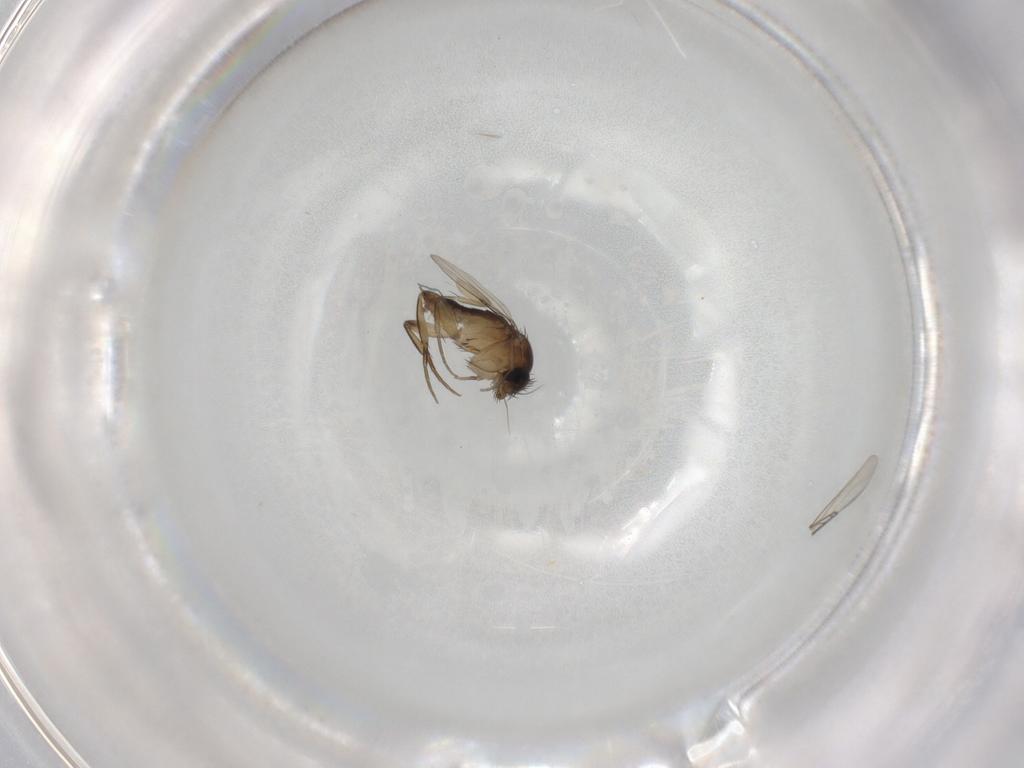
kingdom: Animalia
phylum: Arthropoda
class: Insecta
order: Diptera
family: Phoridae
